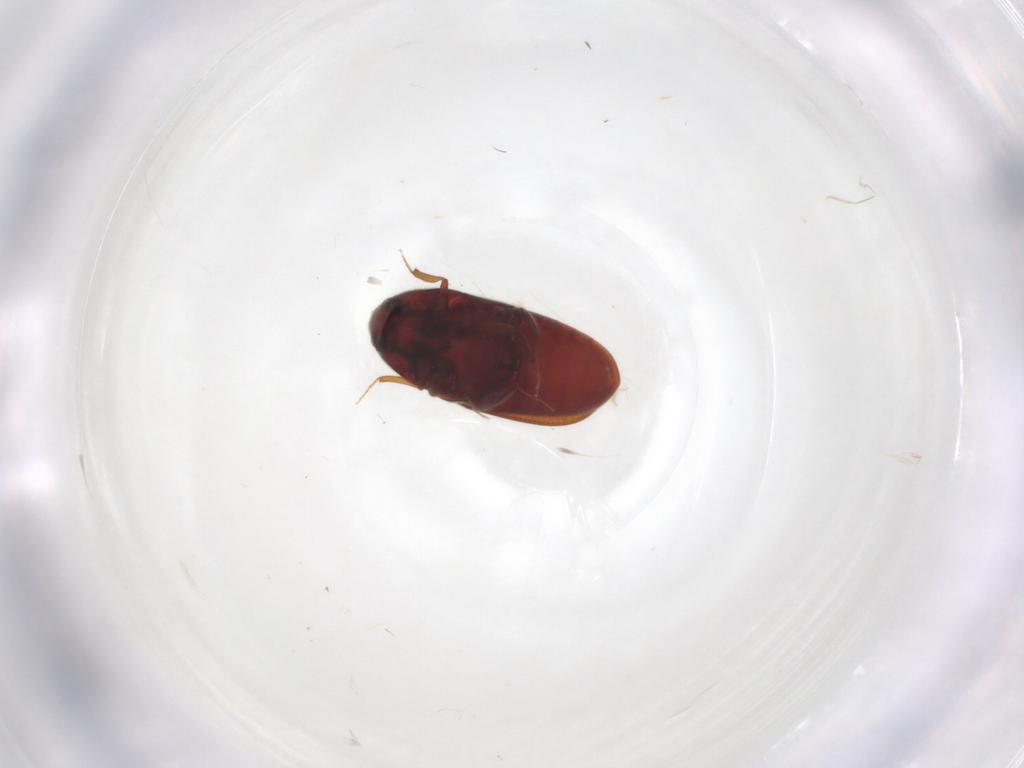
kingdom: Animalia
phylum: Arthropoda
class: Insecta
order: Coleoptera
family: Throscidae
